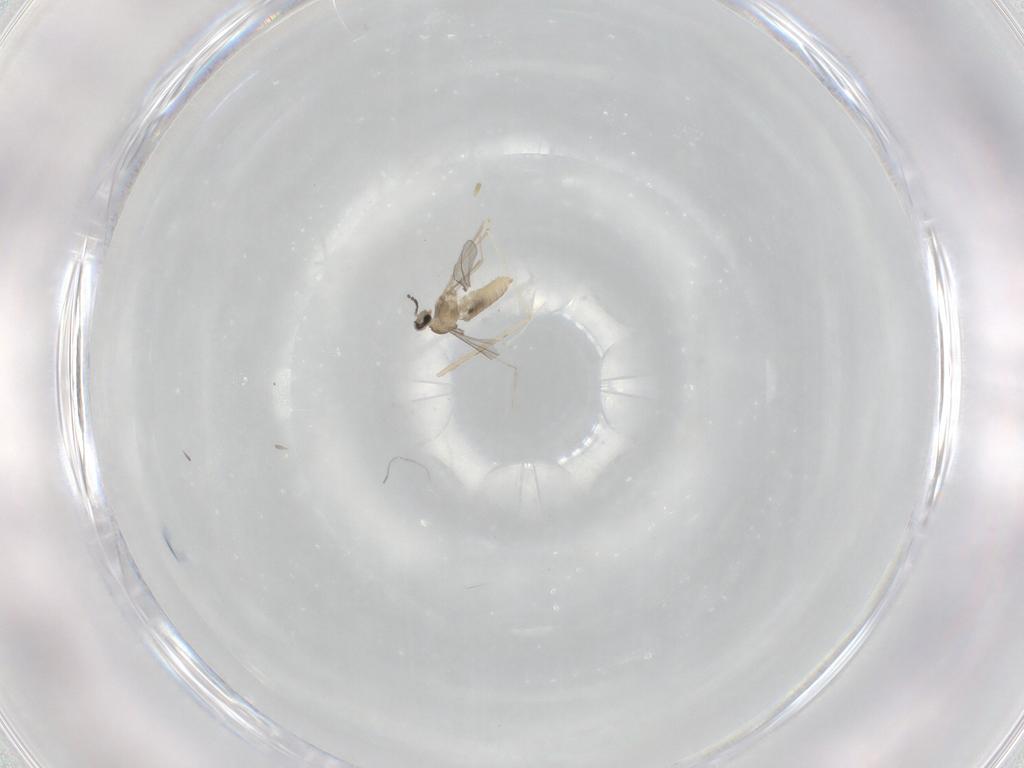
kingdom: Animalia
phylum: Arthropoda
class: Insecta
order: Diptera
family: Cecidomyiidae
